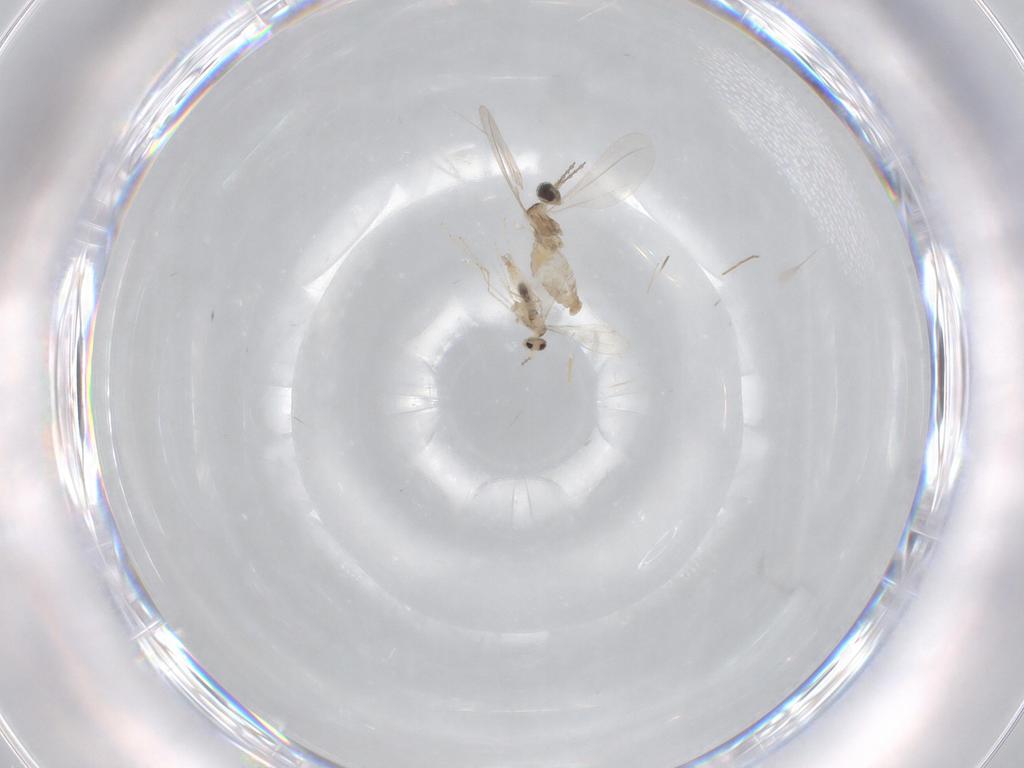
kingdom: Animalia
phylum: Arthropoda
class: Insecta
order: Diptera
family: Cecidomyiidae
